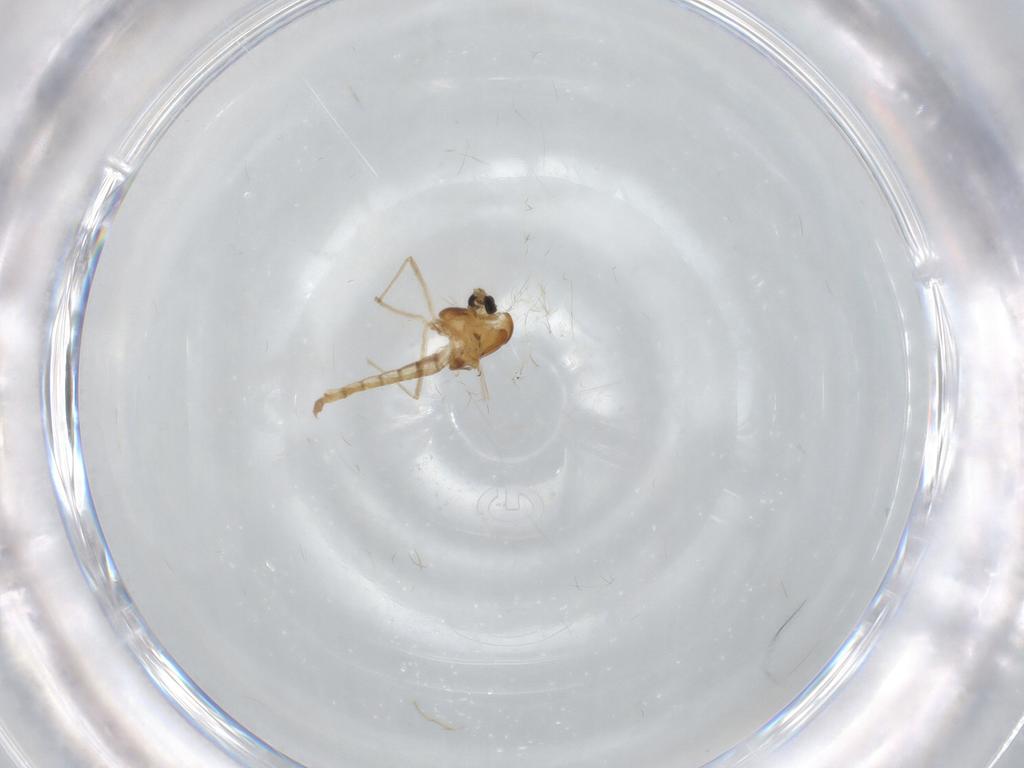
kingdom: Animalia
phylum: Arthropoda
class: Insecta
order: Diptera
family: Chironomidae
